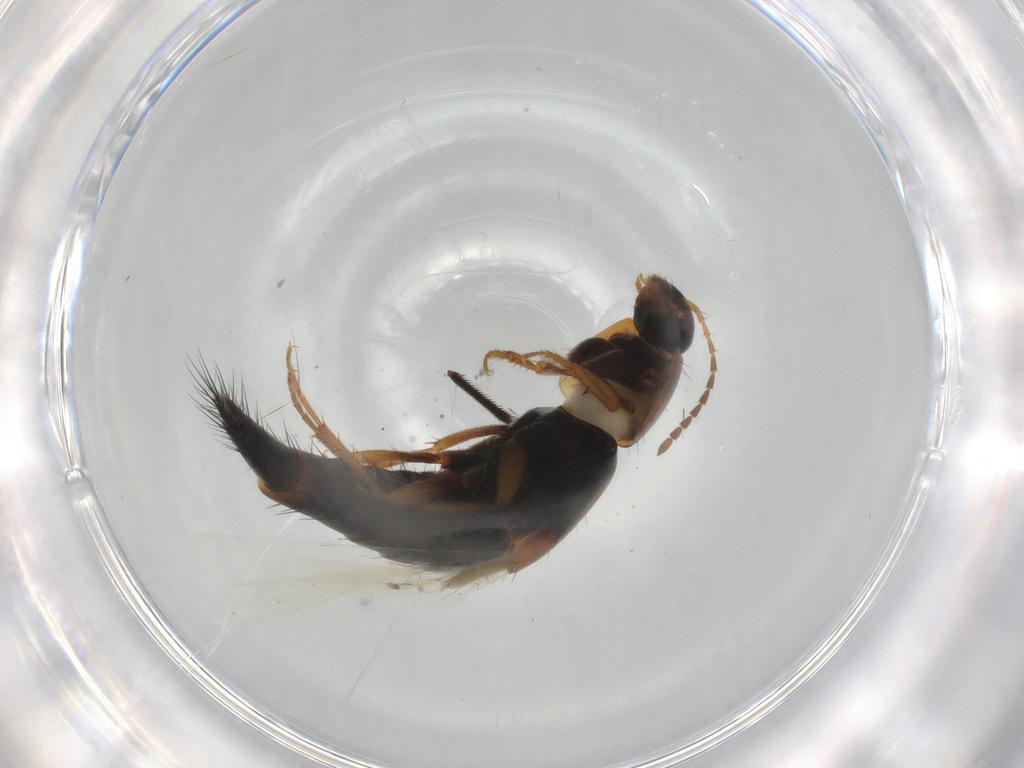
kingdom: Animalia
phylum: Arthropoda
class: Insecta
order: Coleoptera
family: Staphylinidae
